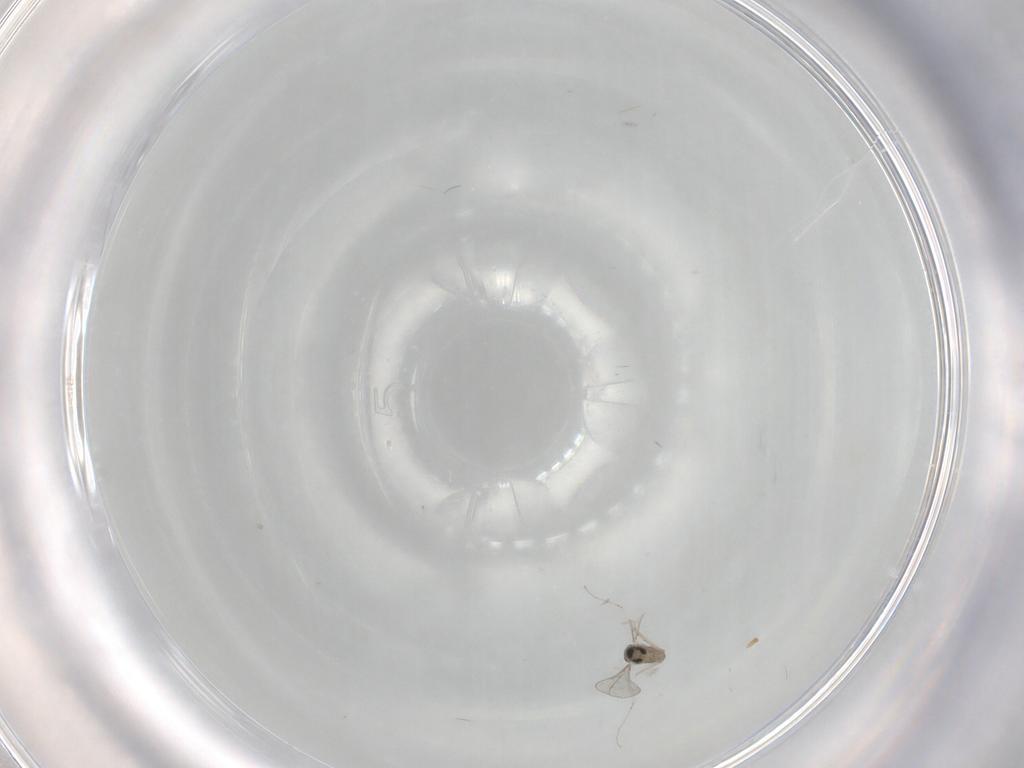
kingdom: Animalia
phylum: Arthropoda
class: Insecta
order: Diptera
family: Cecidomyiidae
